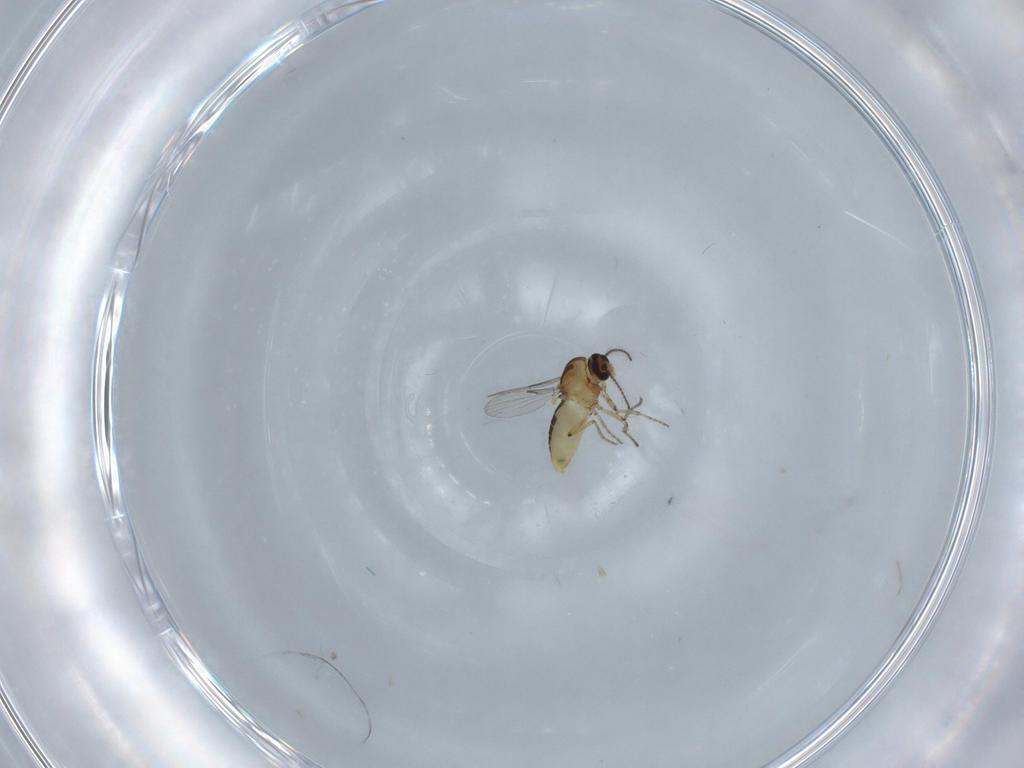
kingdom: Animalia
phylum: Arthropoda
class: Insecta
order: Diptera
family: Ceratopogonidae
